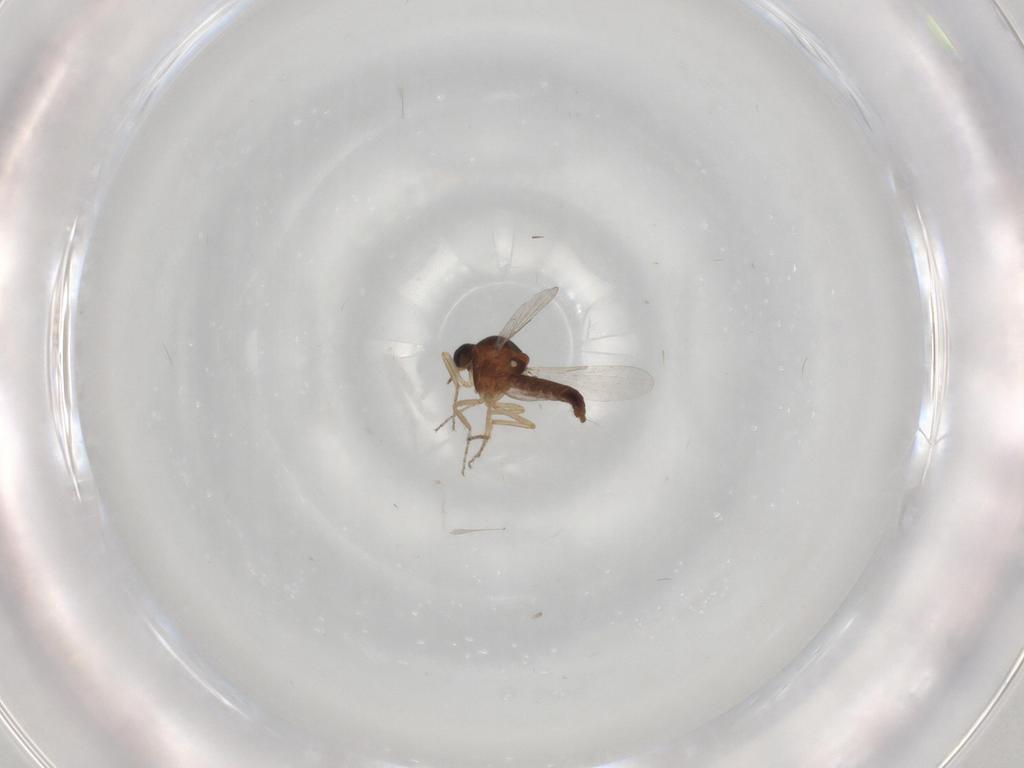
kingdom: Animalia
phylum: Arthropoda
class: Insecta
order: Diptera
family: Ceratopogonidae
